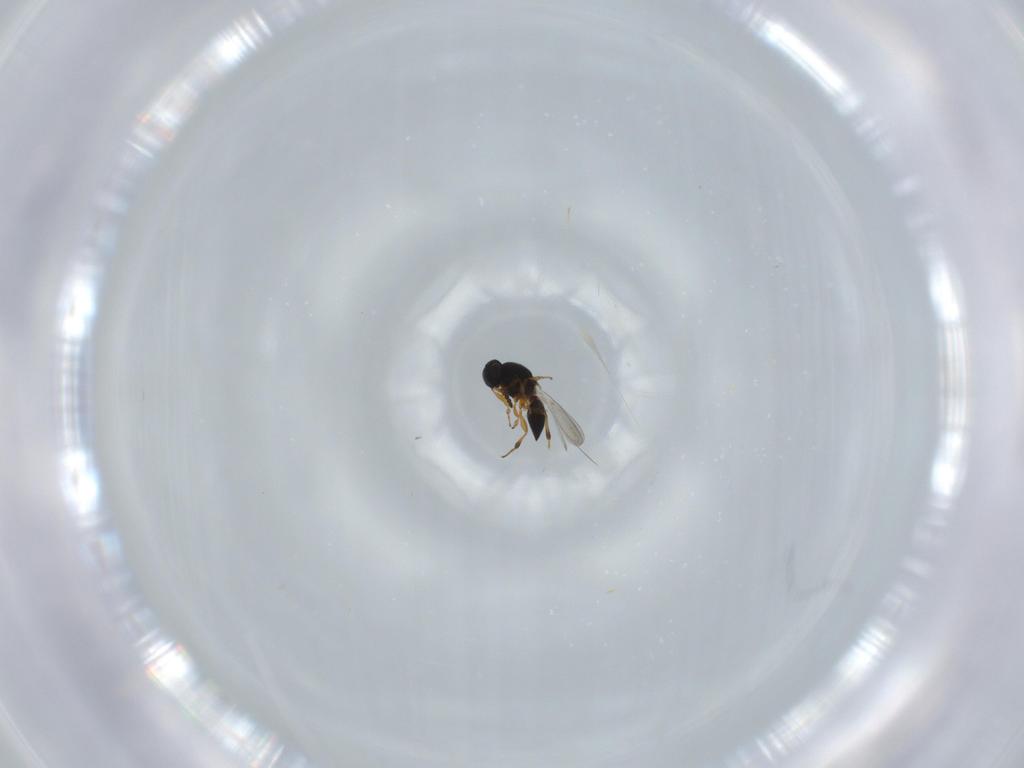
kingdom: Animalia
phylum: Arthropoda
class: Insecta
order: Hymenoptera
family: Platygastridae
